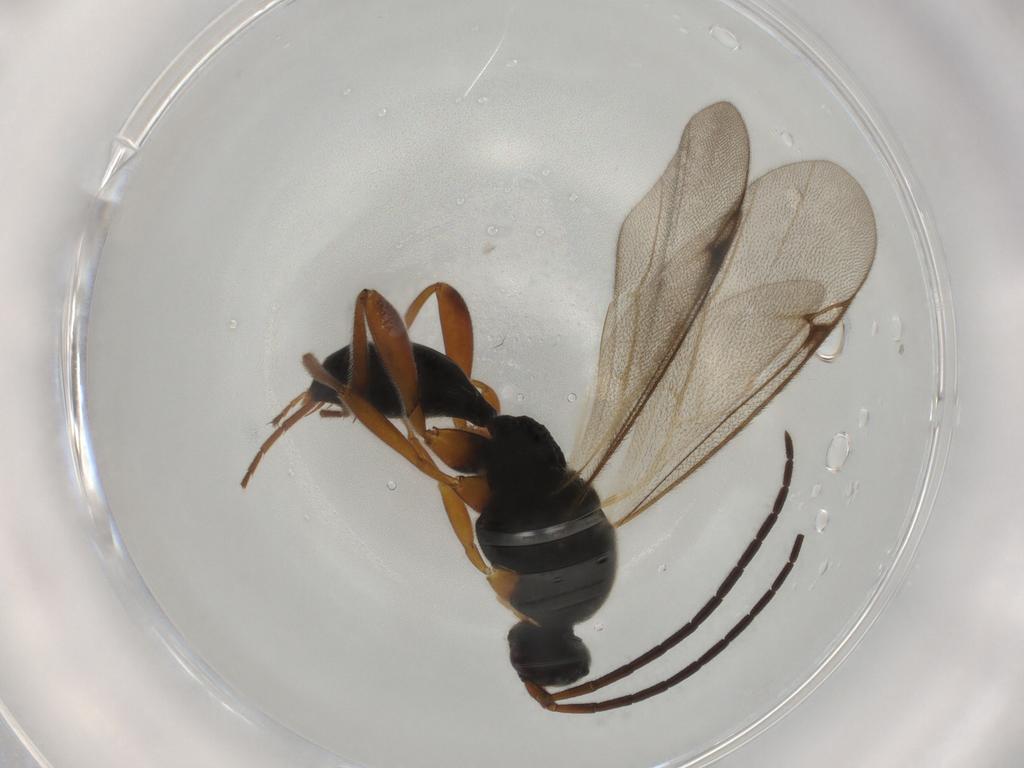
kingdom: Animalia
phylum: Arthropoda
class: Insecta
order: Hymenoptera
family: Proctotrupidae
